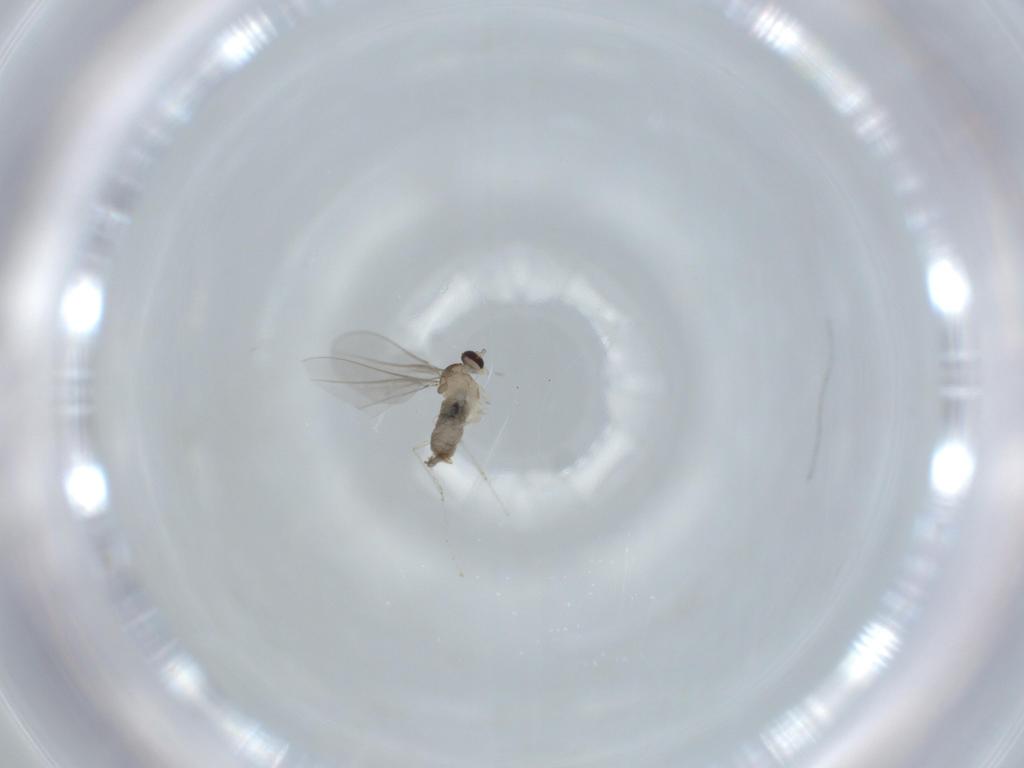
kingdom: Animalia
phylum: Arthropoda
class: Insecta
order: Diptera
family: Cecidomyiidae
